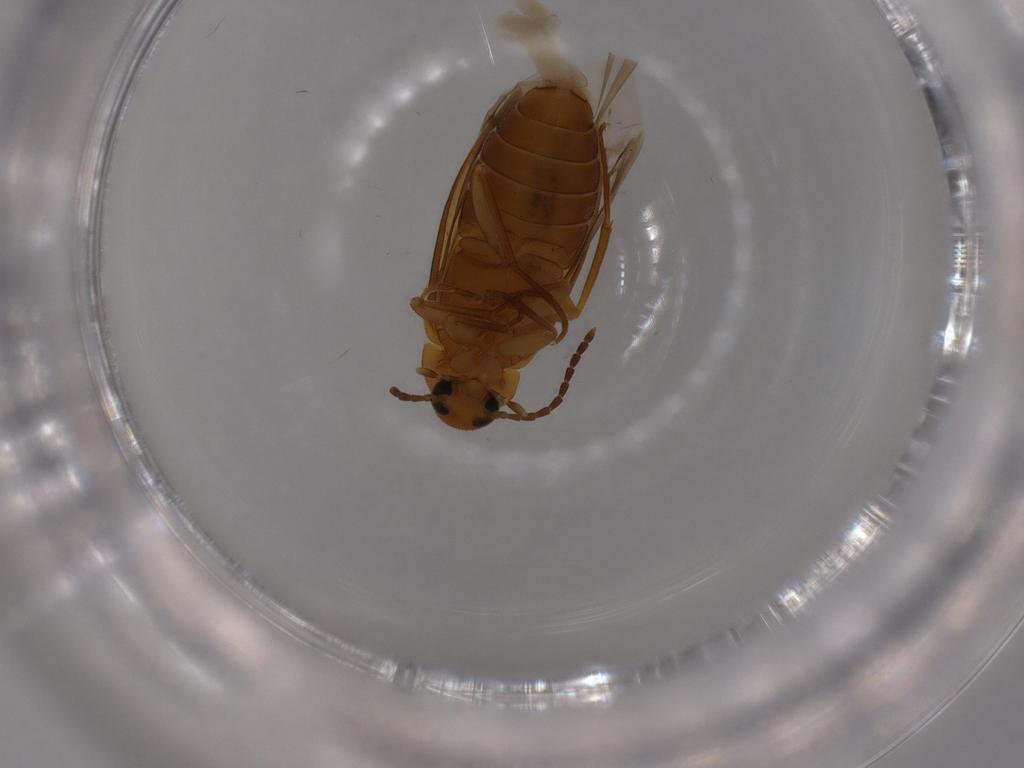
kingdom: Animalia
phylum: Arthropoda
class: Insecta
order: Coleoptera
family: Scraptiidae
